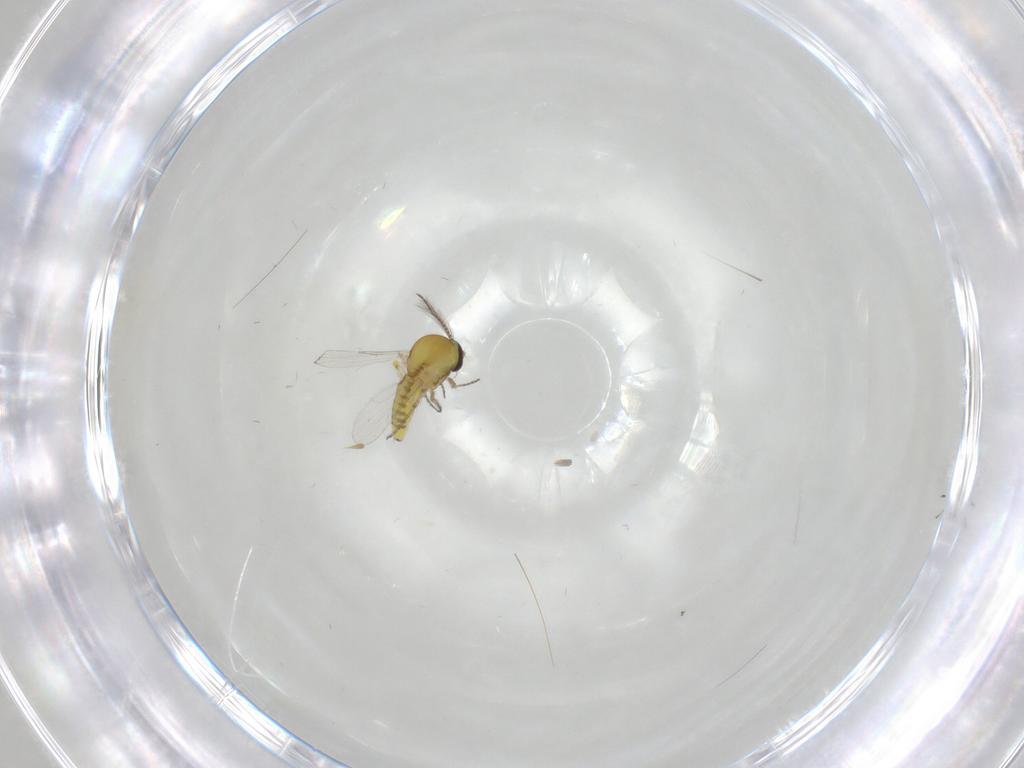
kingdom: Animalia
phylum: Arthropoda
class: Insecta
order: Diptera
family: Ceratopogonidae
